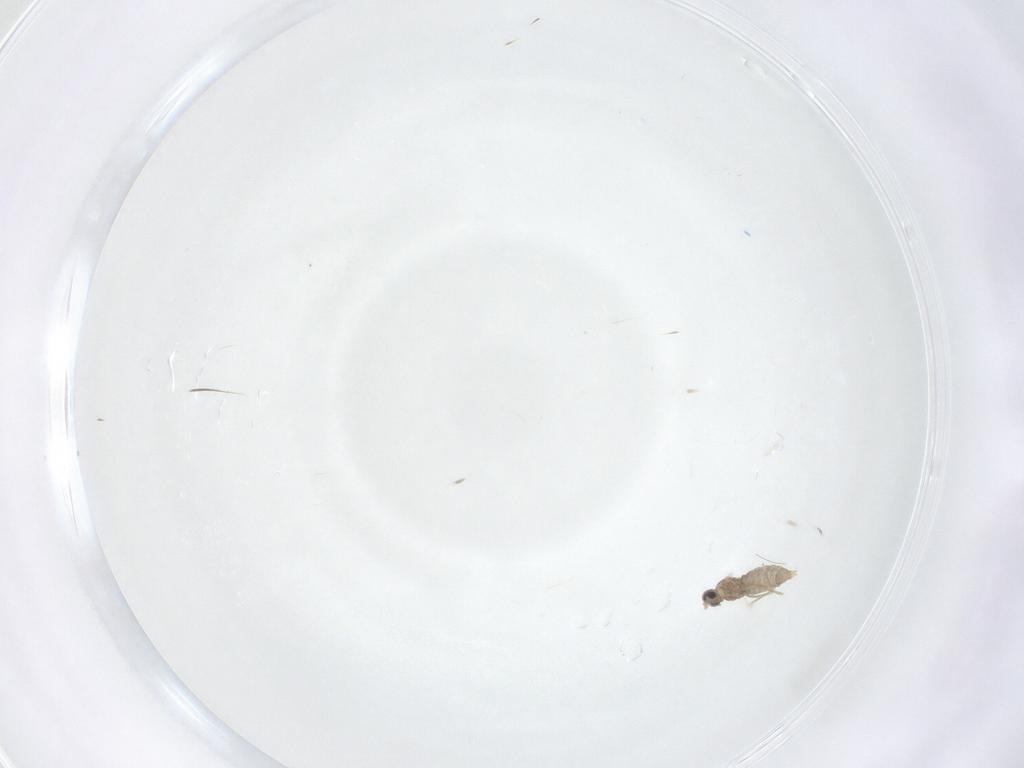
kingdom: Animalia
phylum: Arthropoda
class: Insecta
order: Diptera
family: Cecidomyiidae
